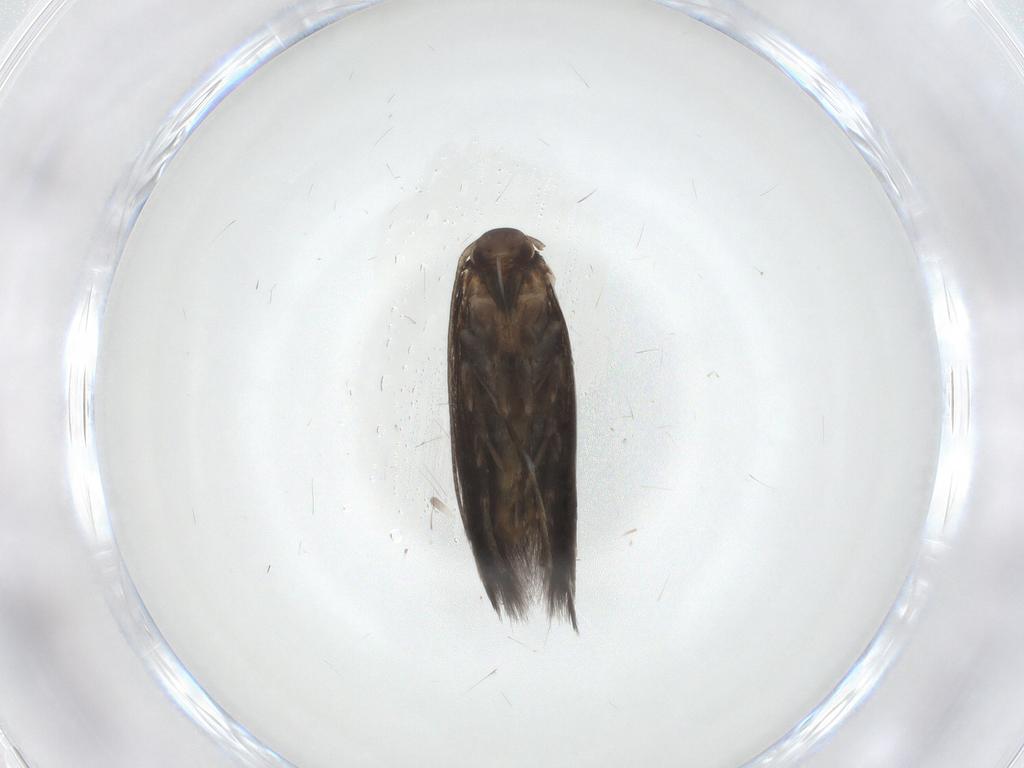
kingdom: Animalia
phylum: Arthropoda
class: Insecta
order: Lepidoptera
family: Elachistidae
